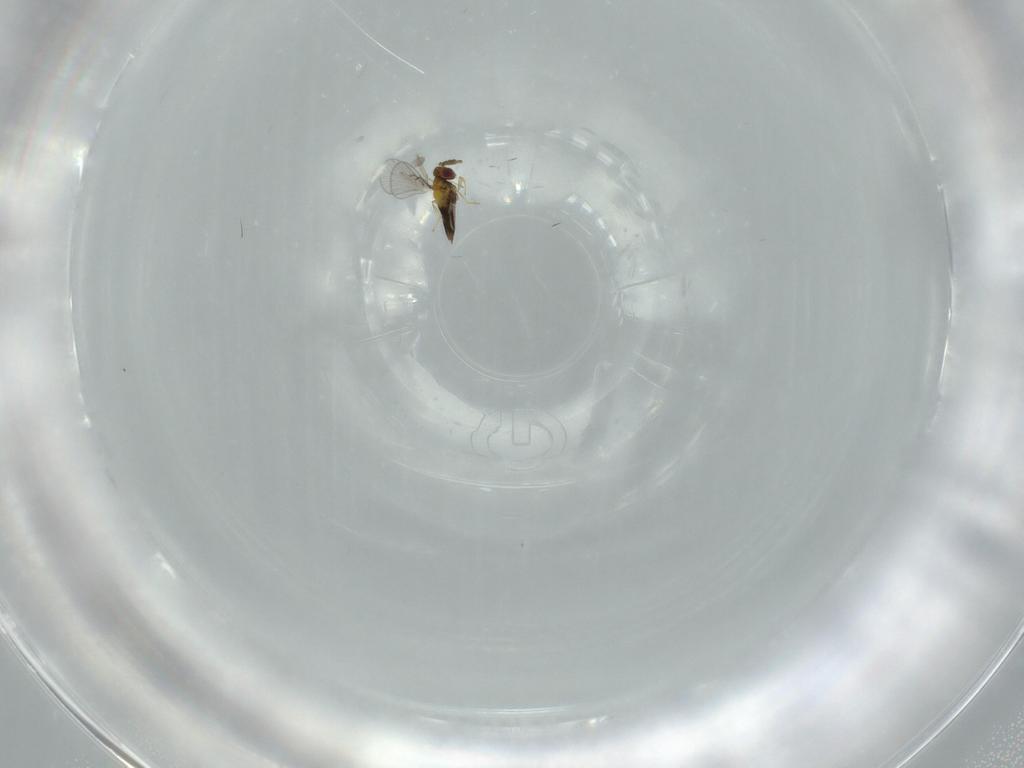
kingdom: Animalia
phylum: Arthropoda
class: Insecta
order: Hymenoptera
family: Trichogrammatidae
